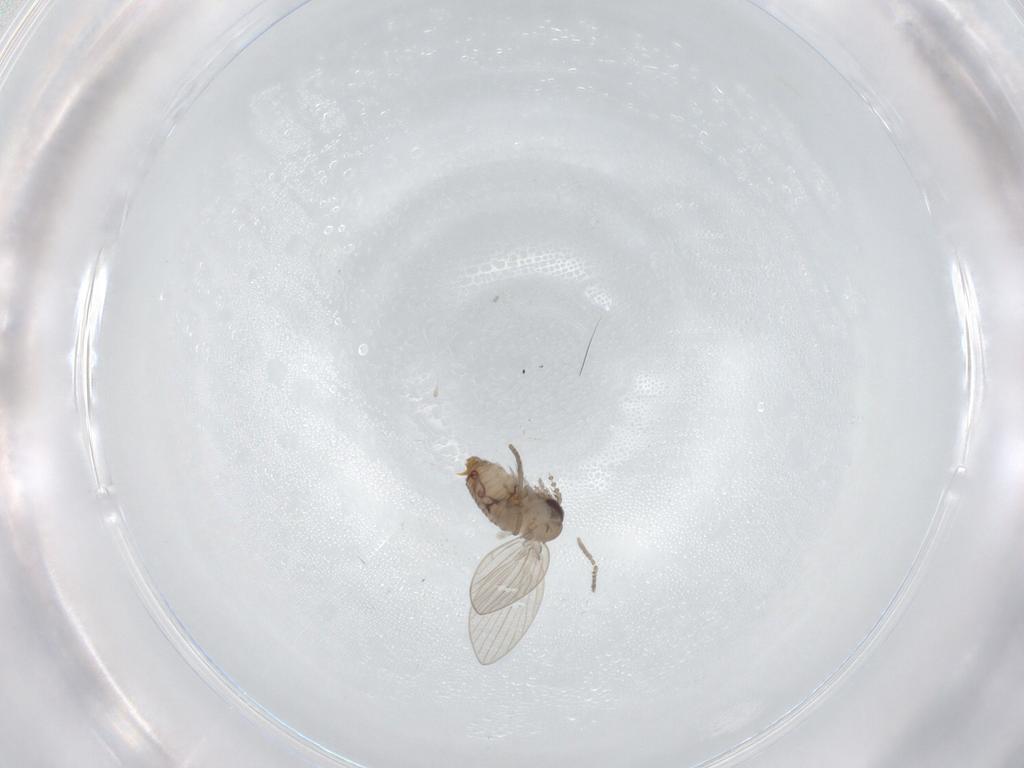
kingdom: Animalia
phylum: Arthropoda
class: Insecta
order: Diptera
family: Psychodidae
